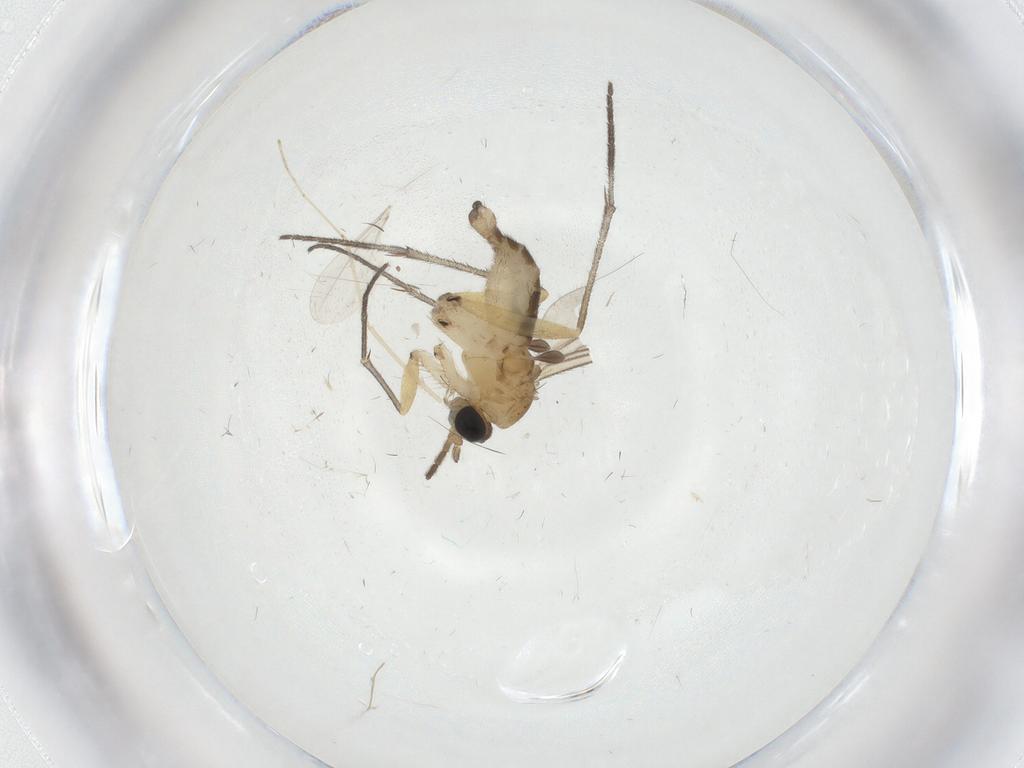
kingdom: Animalia
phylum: Arthropoda
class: Insecta
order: Diptera
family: Sciaridae
